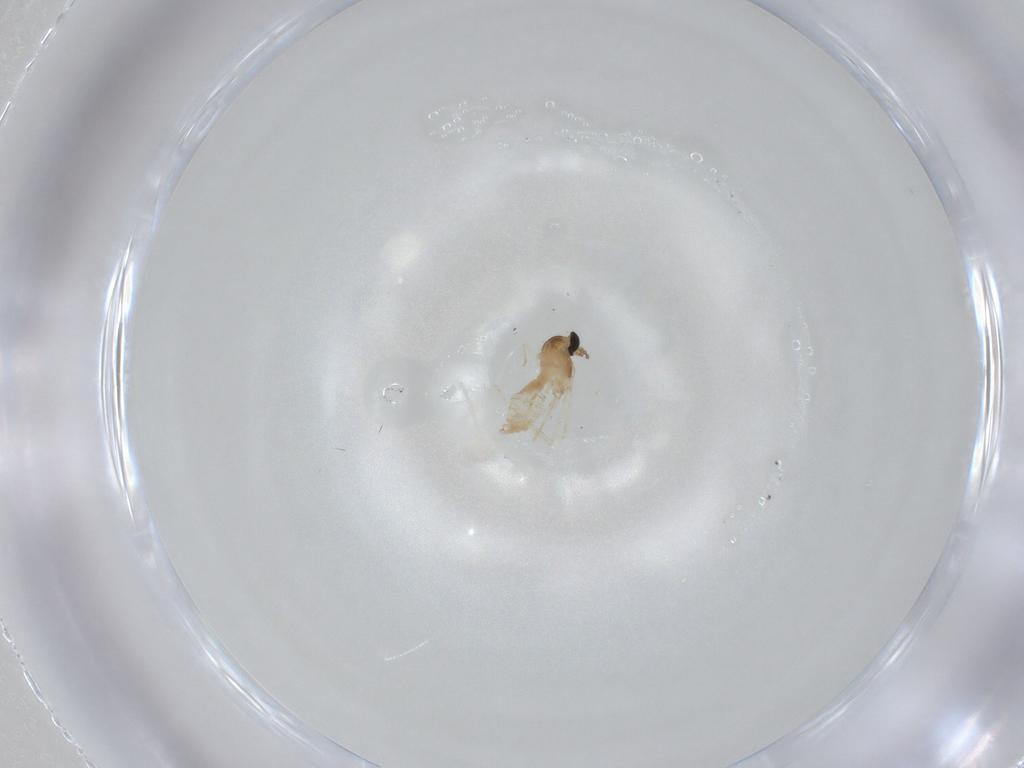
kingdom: Animalia
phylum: Arthropoda
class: Insecta
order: Diptera
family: Cecidomyiidae
